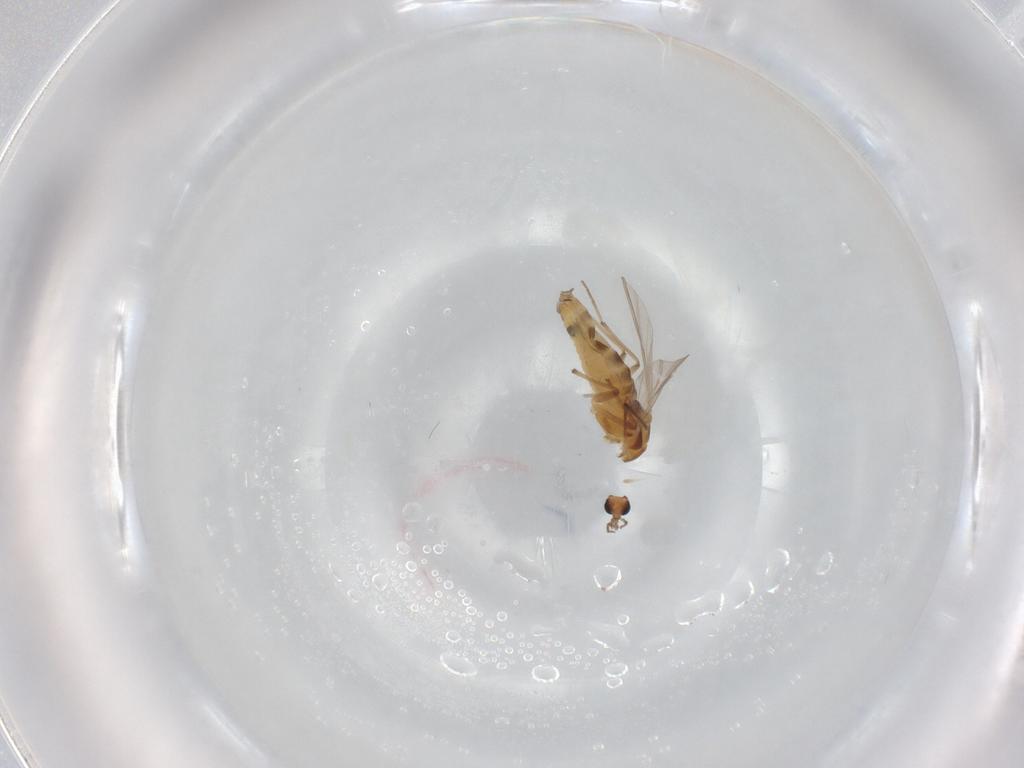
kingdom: Animalia
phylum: Arthropoda
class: Insecta
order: Diptera
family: Chironomidae
